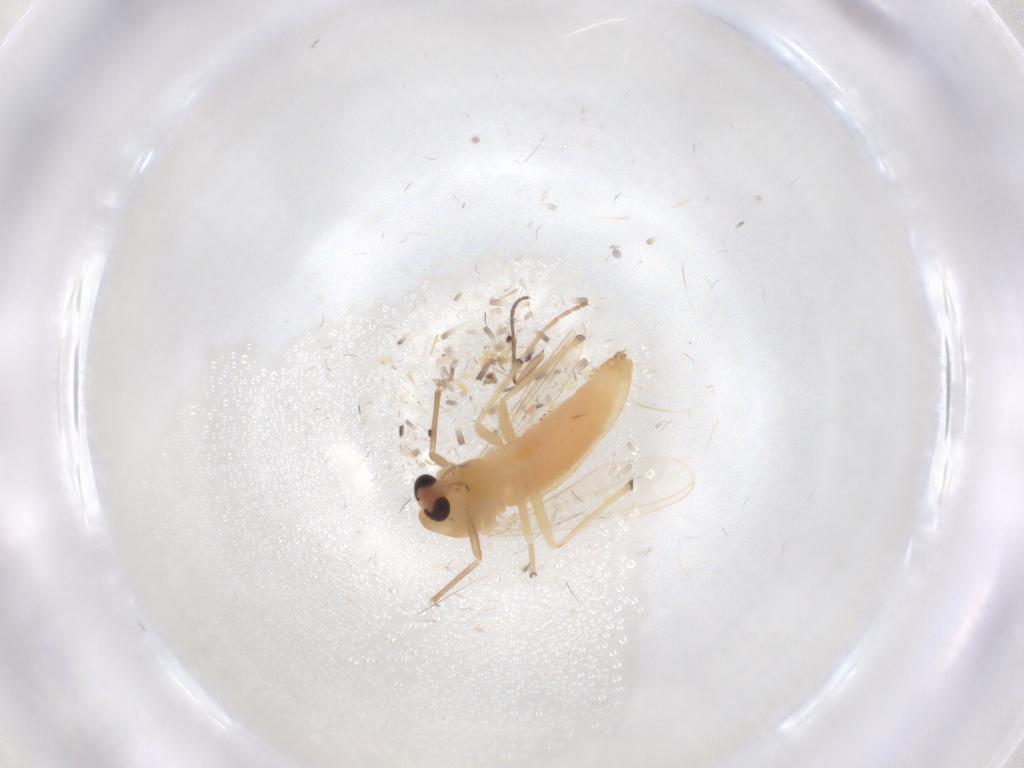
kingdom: Animalia
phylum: Arthropoda
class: Insecta
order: Diptera
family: Chironomidae
